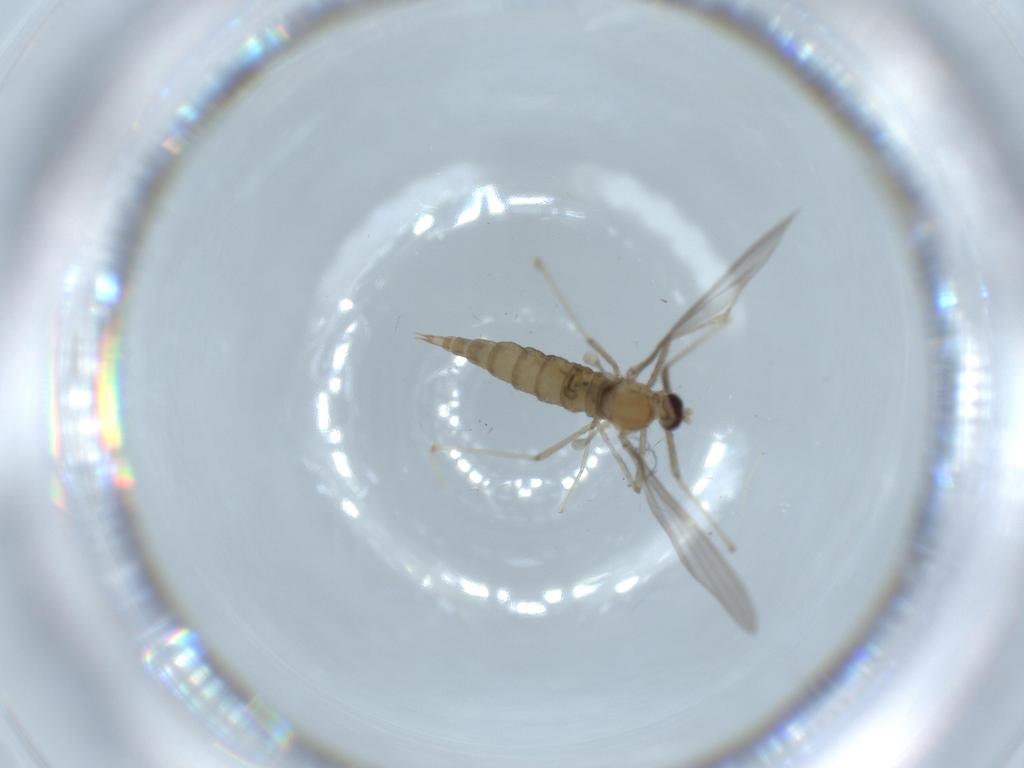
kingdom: Animalia
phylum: Arthropoda
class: Insecta
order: Diptera
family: Cecidomyiidae
